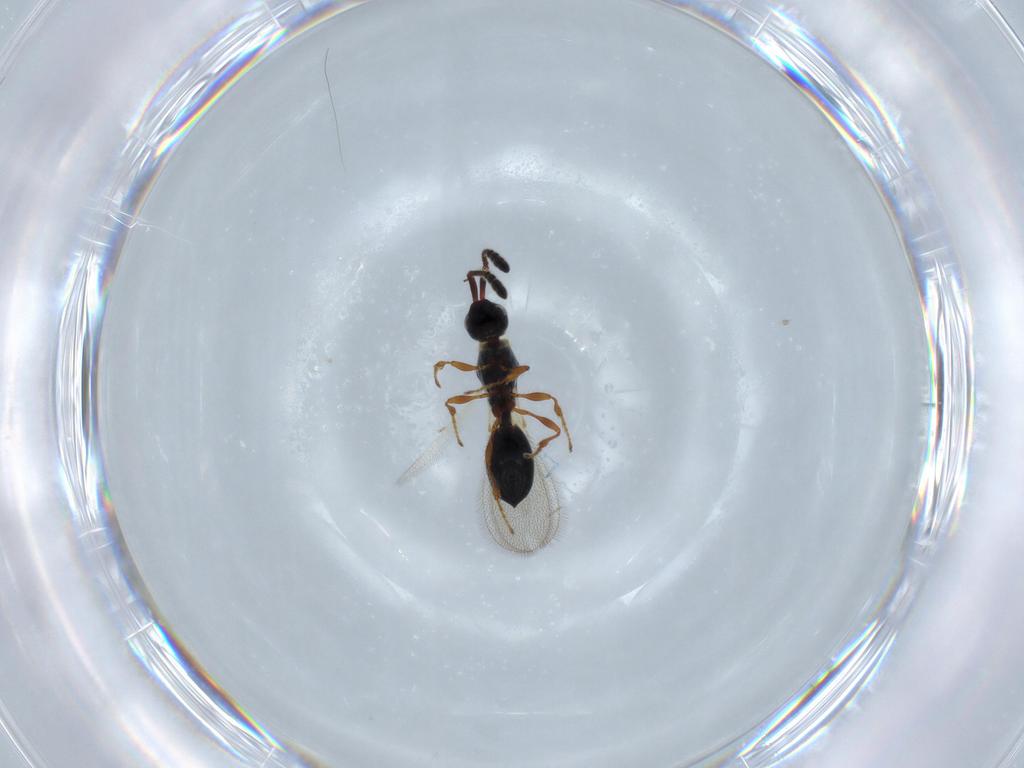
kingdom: Animalia
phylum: Arthropoda
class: Insecta
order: Hymenoptera
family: Diapriidae
